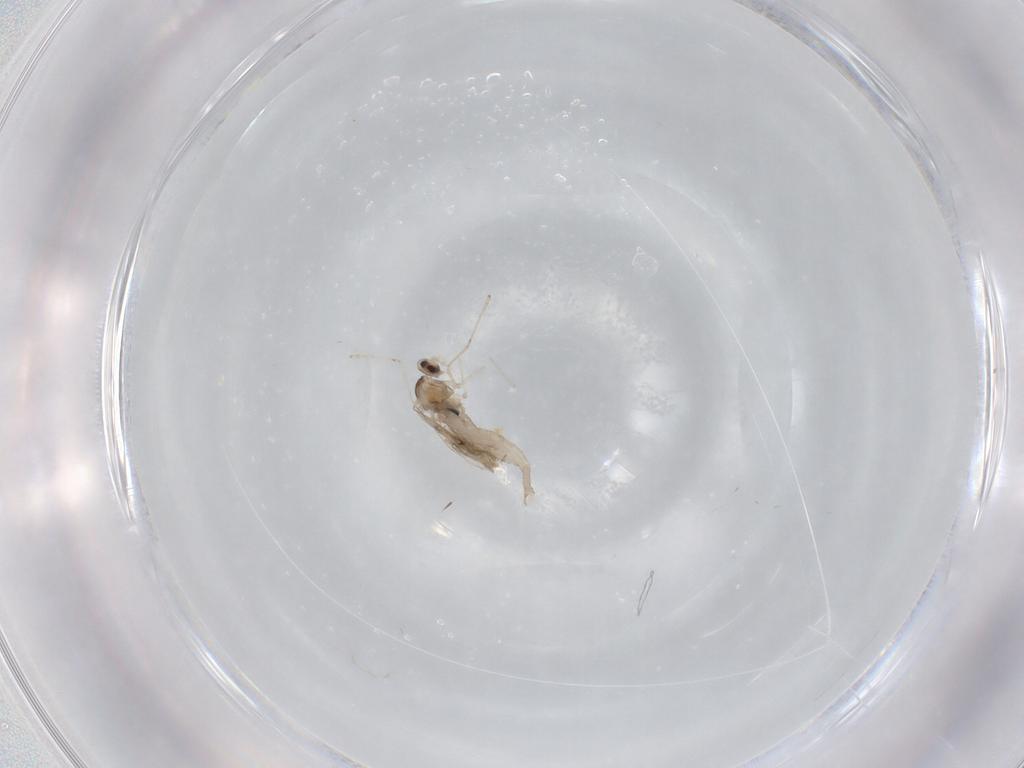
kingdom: Animalia
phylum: Arthropoda
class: Insecta
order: Diptera
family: Cecidomyiidae
